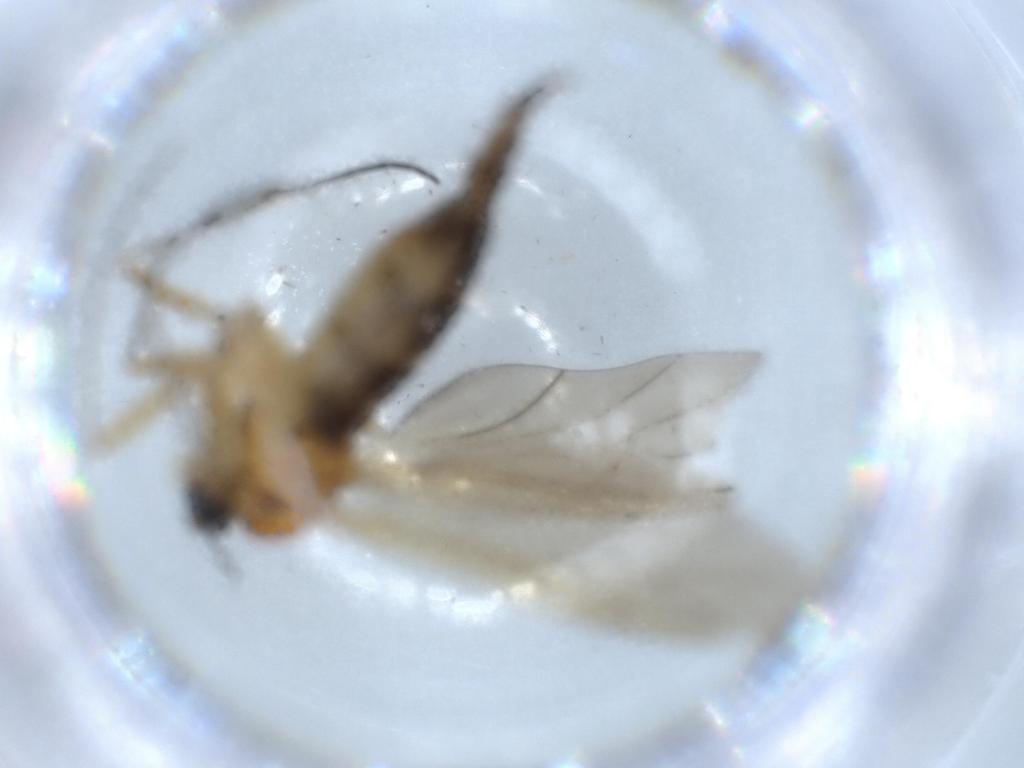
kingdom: Animalia
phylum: Arthropoda
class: Insecta
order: Diptera
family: Sciaridae
